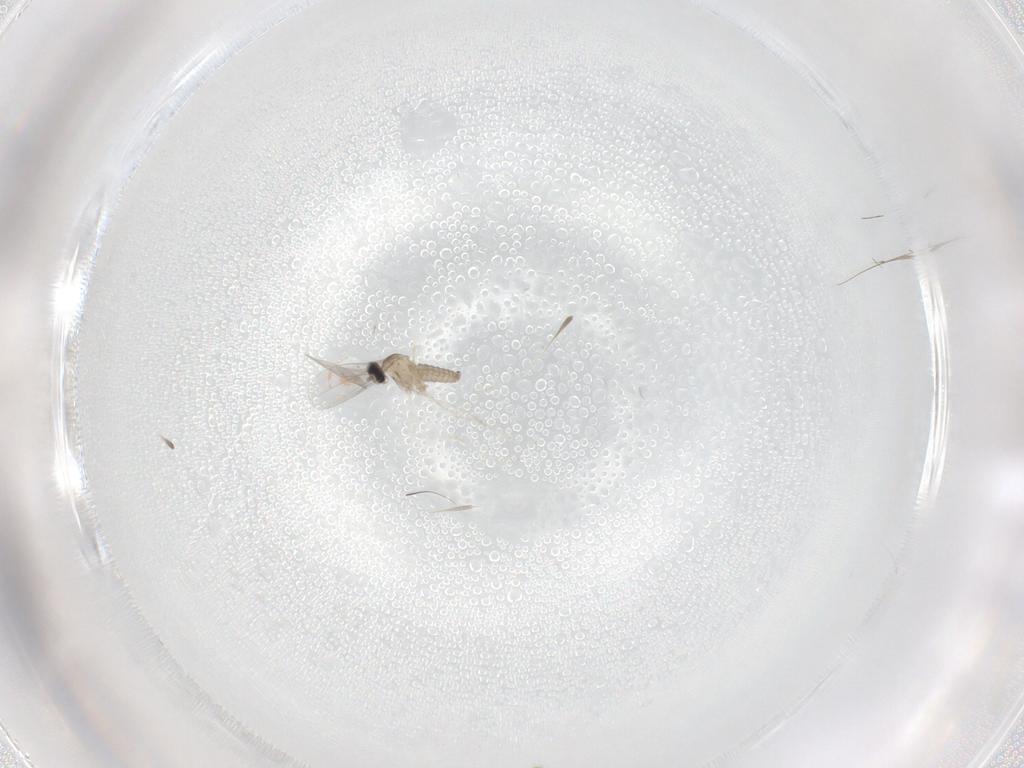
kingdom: Animalia
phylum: Arthropoda
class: Insecta
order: Diptera
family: Cecidomyiidae
